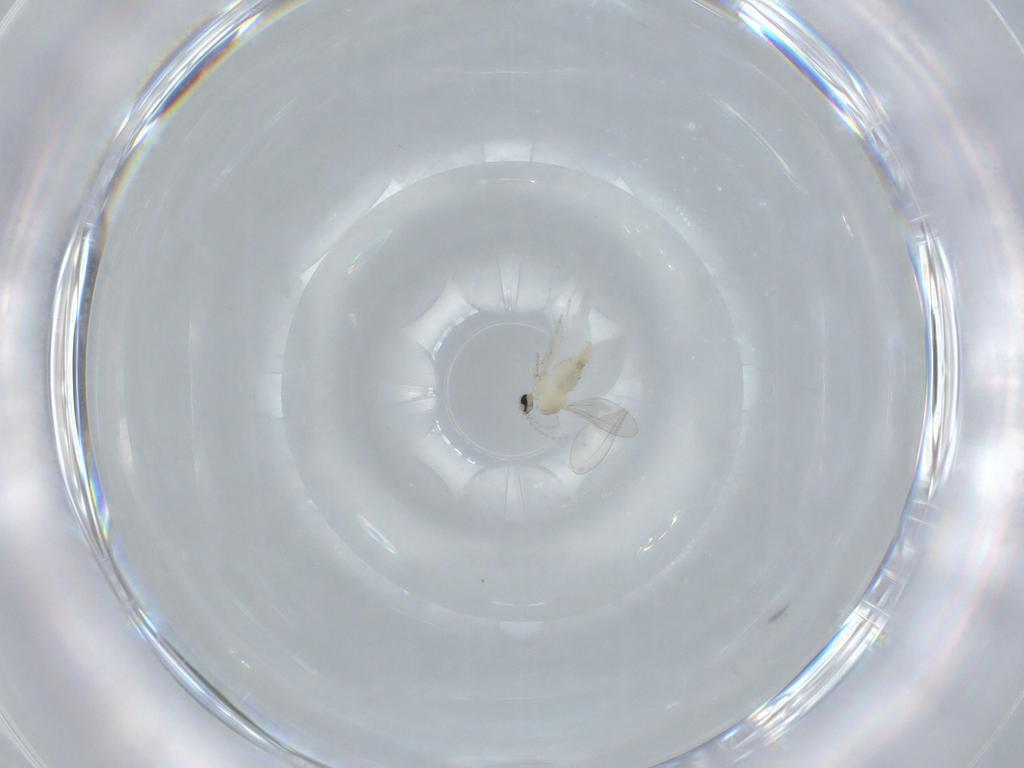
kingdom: Animalia
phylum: Arthropoda
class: Insecta
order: Diptera
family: Cecidomyiidae
